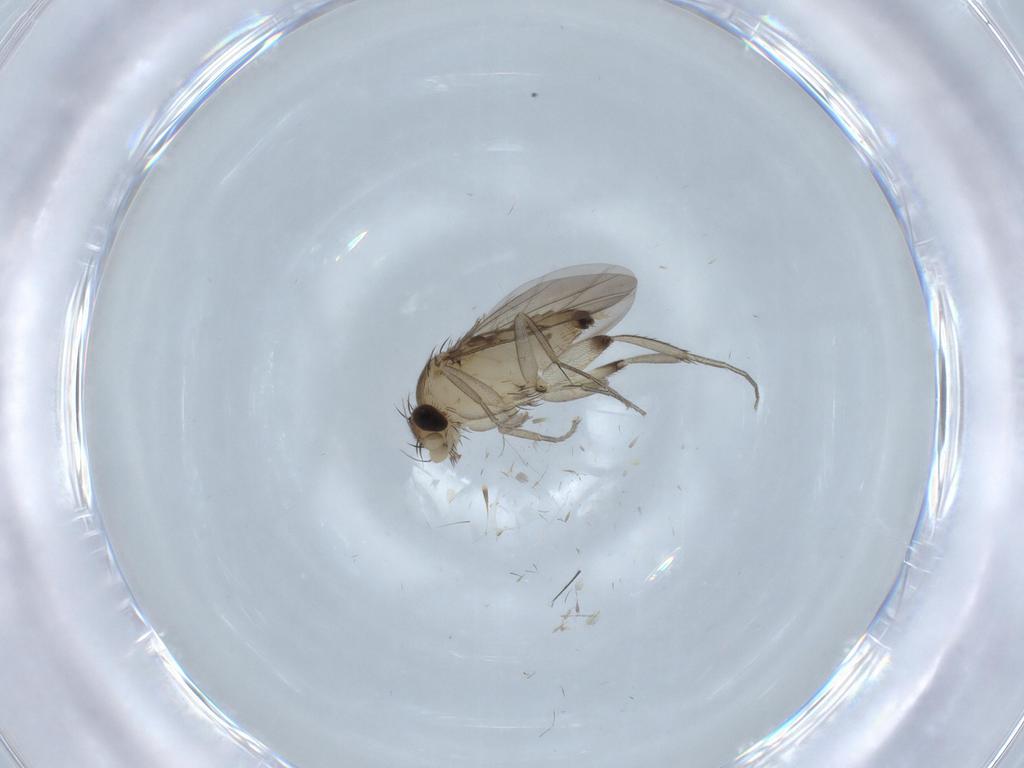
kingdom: Animalia
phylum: Arthropoda
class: Insecta
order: Diptera
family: Phoridae
